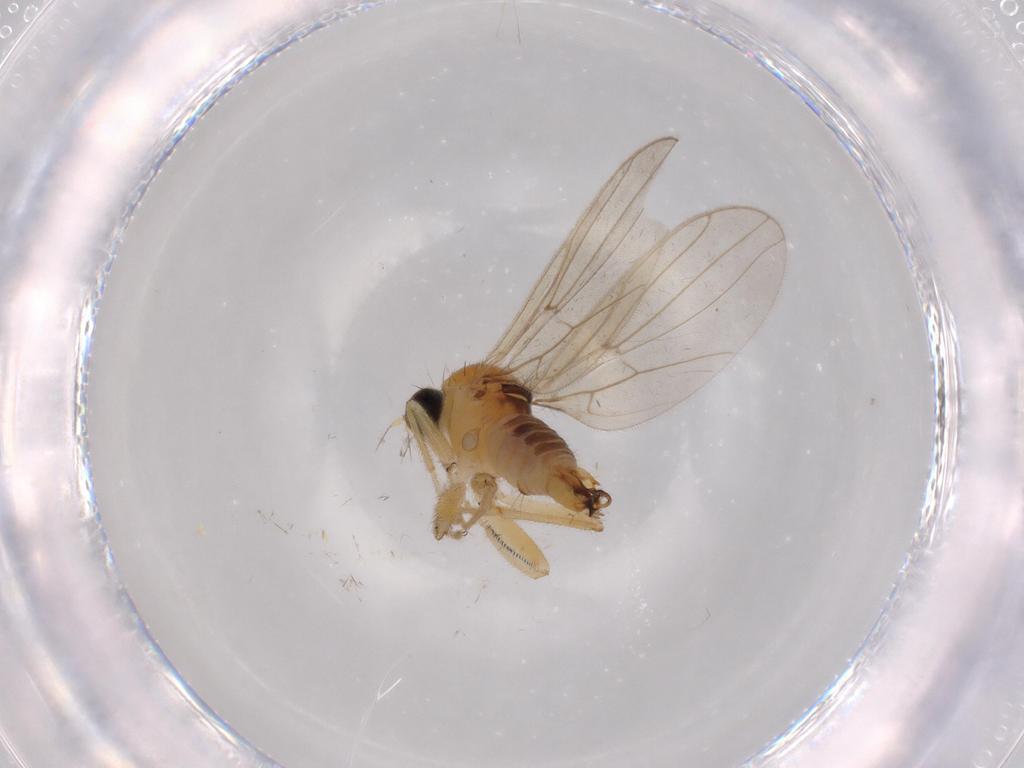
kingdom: Animalia
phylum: Arthropoda
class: Insecta
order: Diptera
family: Hybotidae
